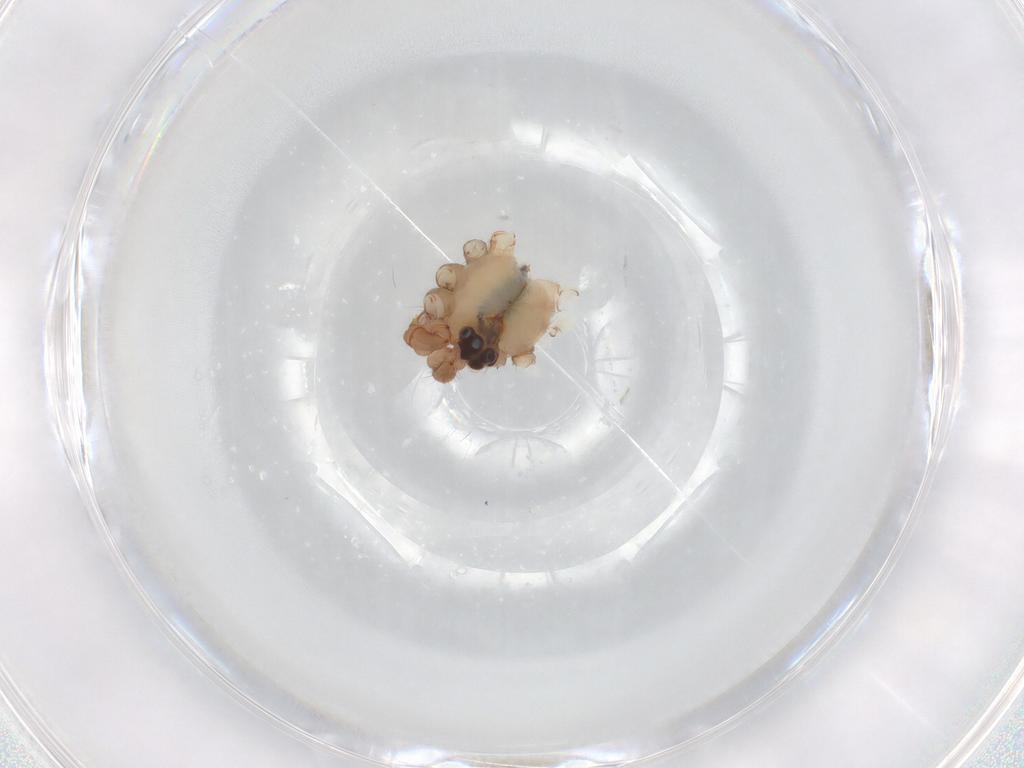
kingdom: Animalia
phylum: Arthropoda
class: Arachnida
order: Araneae
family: Pholcidae
